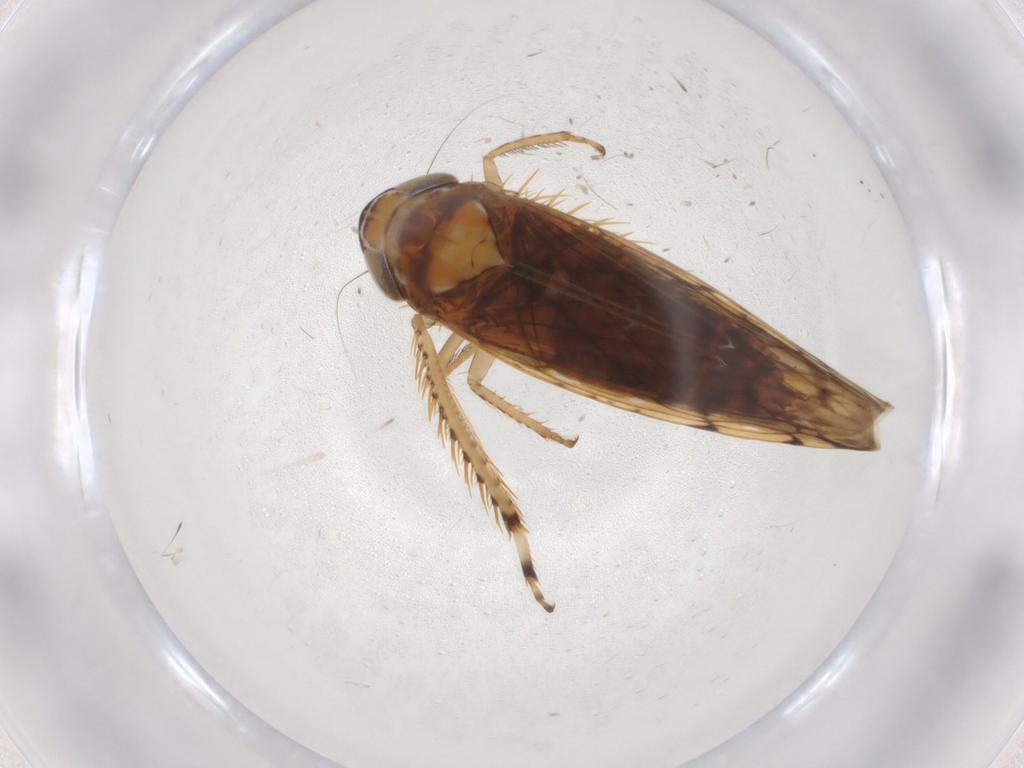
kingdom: Animalia
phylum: Arthropoda
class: Insecta
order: Hemiptera
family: Cicadellidae
